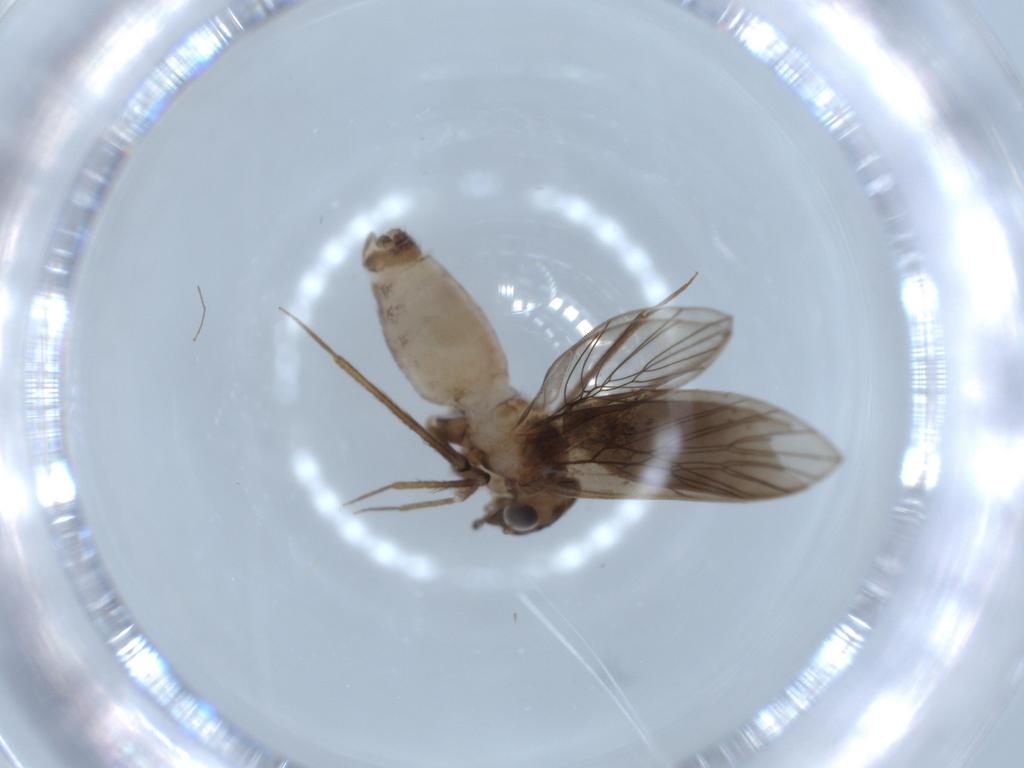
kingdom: Animalia
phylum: Arthropoda
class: Insecta
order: Psocodea
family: Lepidopsocidae
